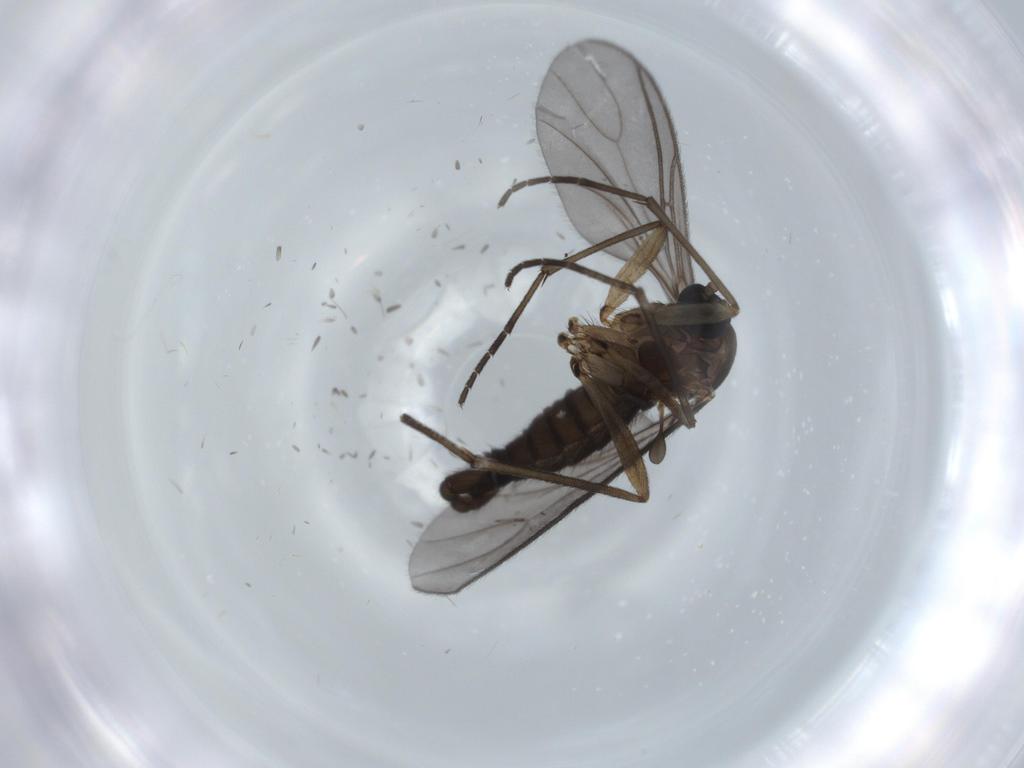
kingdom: Animalia
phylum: Arthropoda
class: Insecta
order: Diptera
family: Sciaridae
